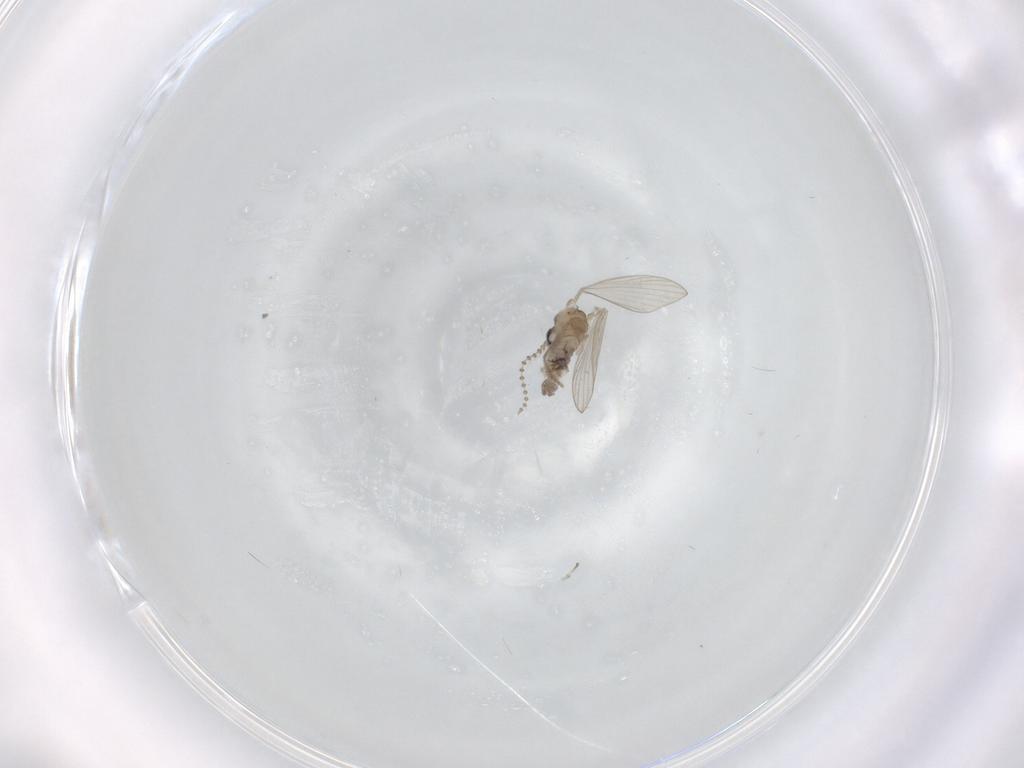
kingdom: Animalia
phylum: Arthropoda
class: Insecta
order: Diptera
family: Psychodidae
